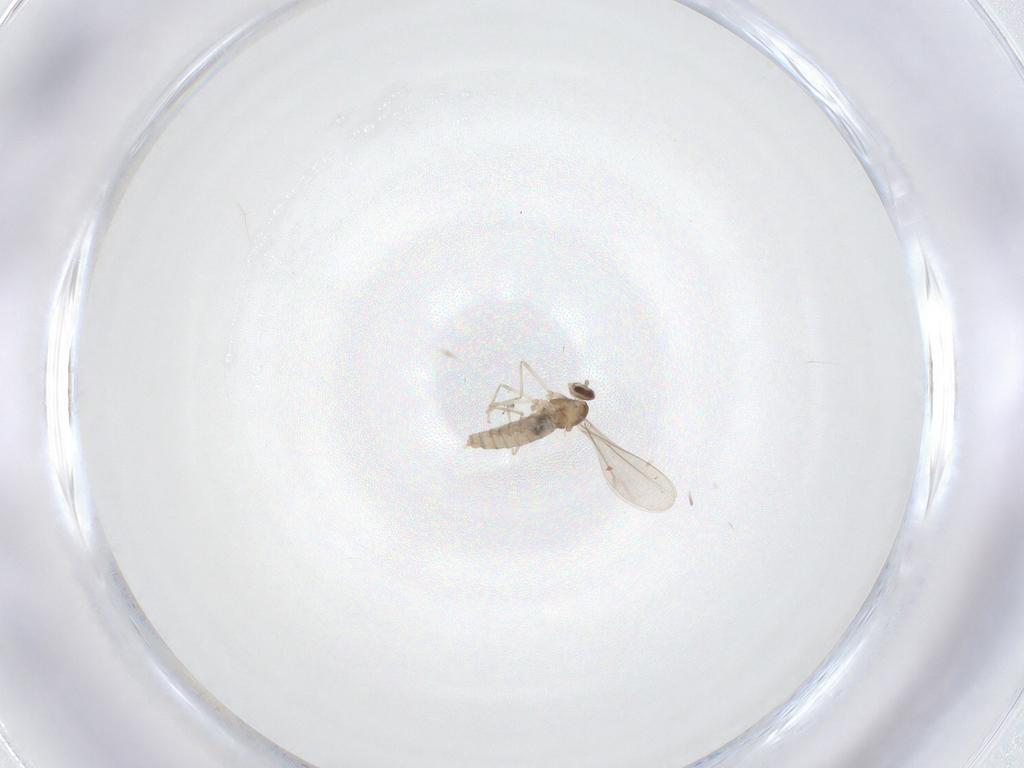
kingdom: Animalia
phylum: Arthropoda
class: Insecta
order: Diptera
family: Cecidomyiidae
